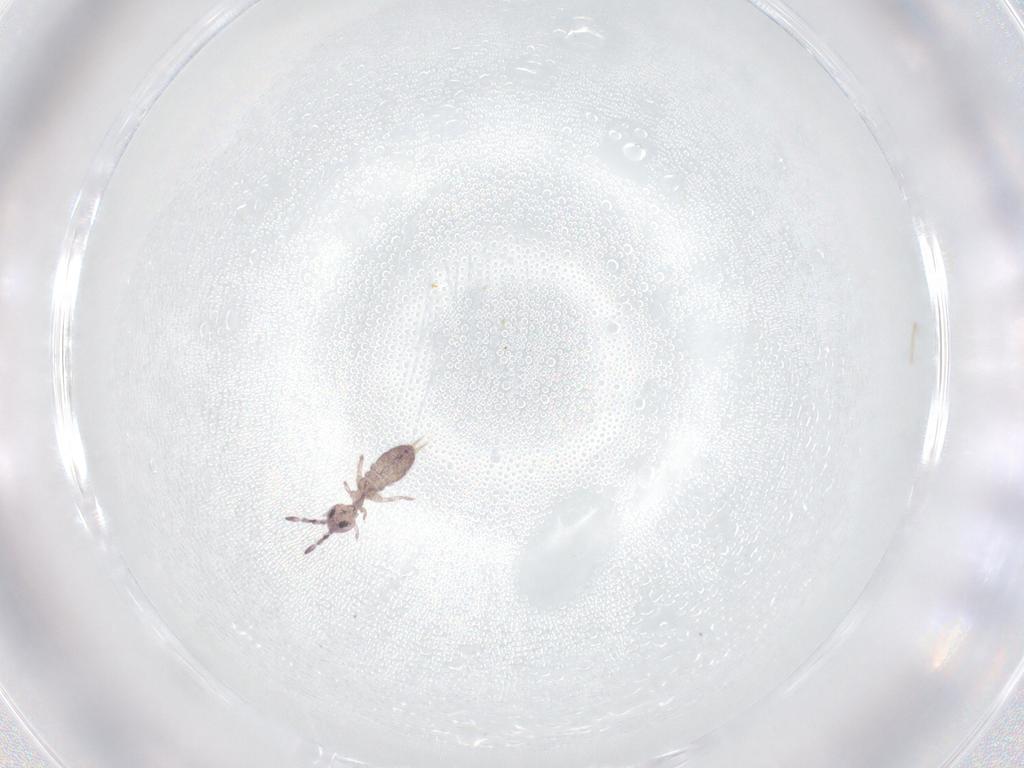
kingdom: Animalia
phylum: Arthropoda
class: Collembola
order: Entomobryomorpha
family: Isotomidae
